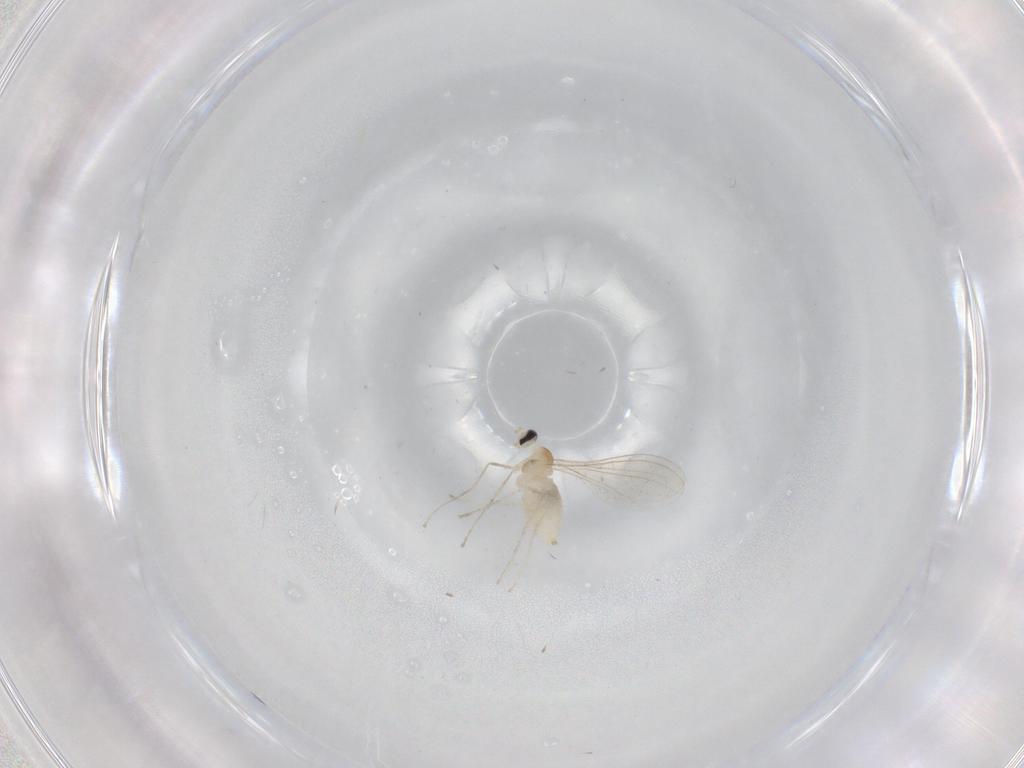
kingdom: Animalia
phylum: Arthropoda
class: Insecta
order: Diptera
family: Cecidomyiidae
